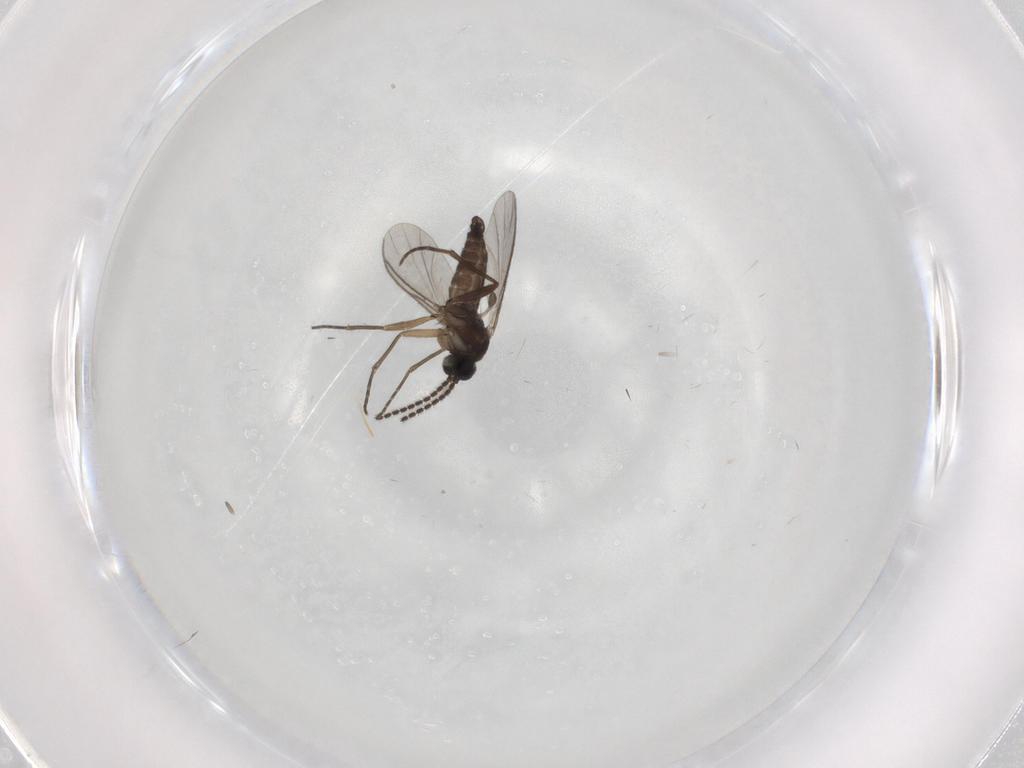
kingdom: Animalia
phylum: Arthropoda
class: Insecta
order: Diptera
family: Sciaridae
